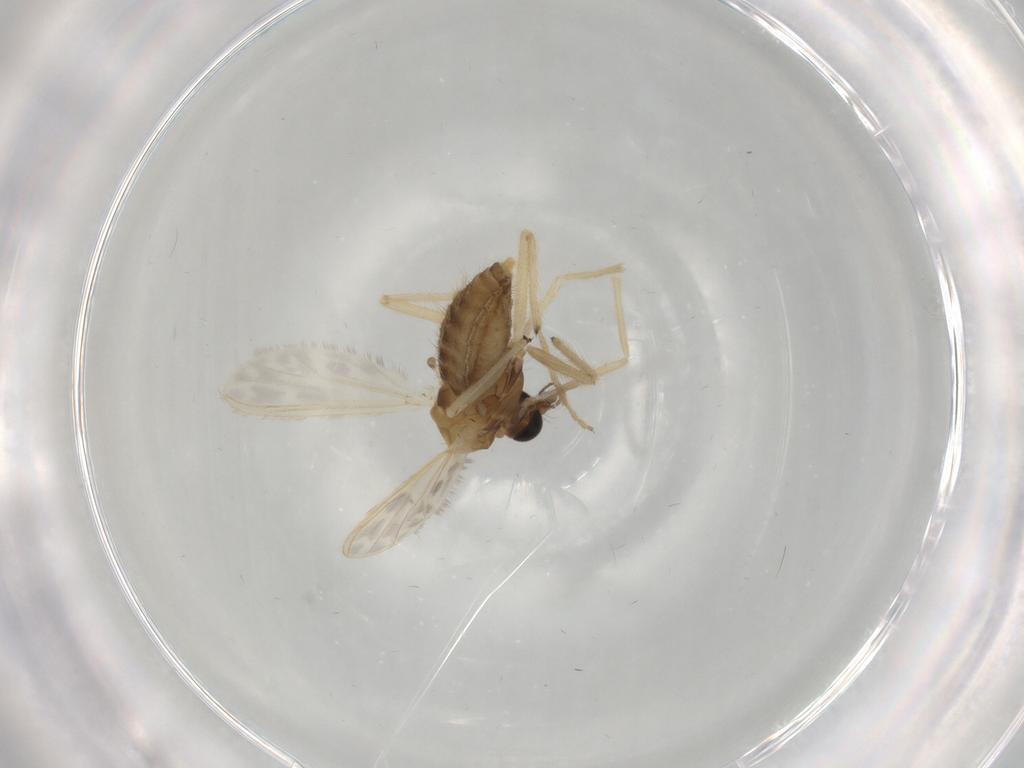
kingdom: Animalia
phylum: Arthropoda
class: Insecta
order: Diptera
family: Chironomidae
